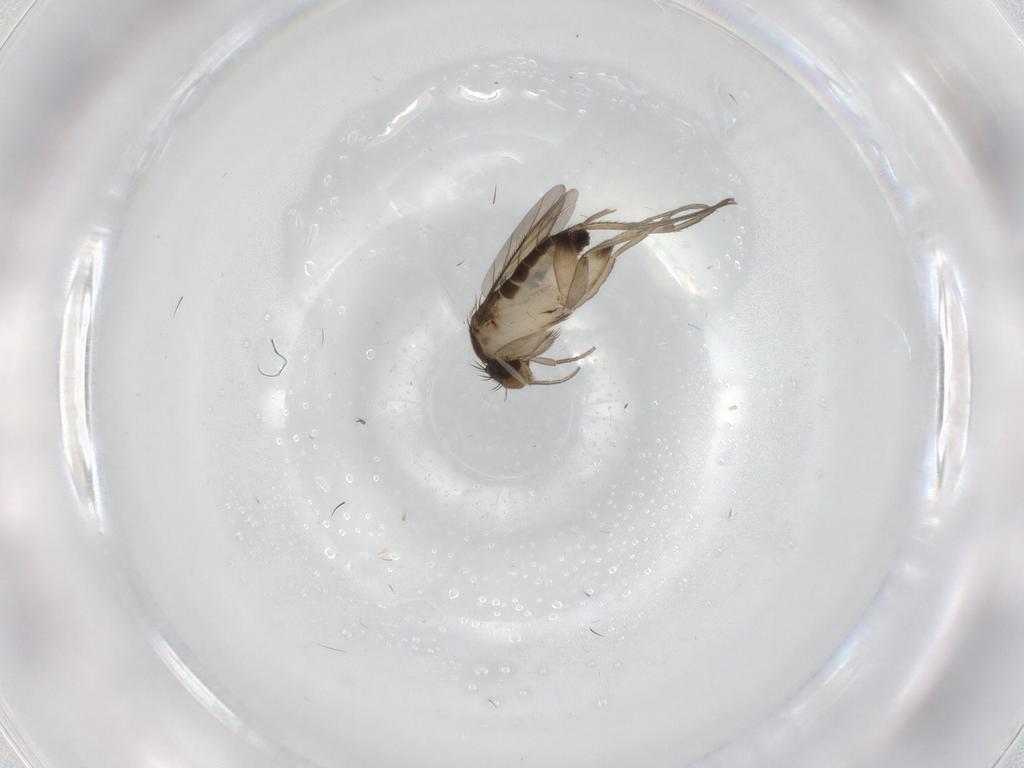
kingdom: Animalia
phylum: Arthropoda
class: Insecta
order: Diptera
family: Phoridae
